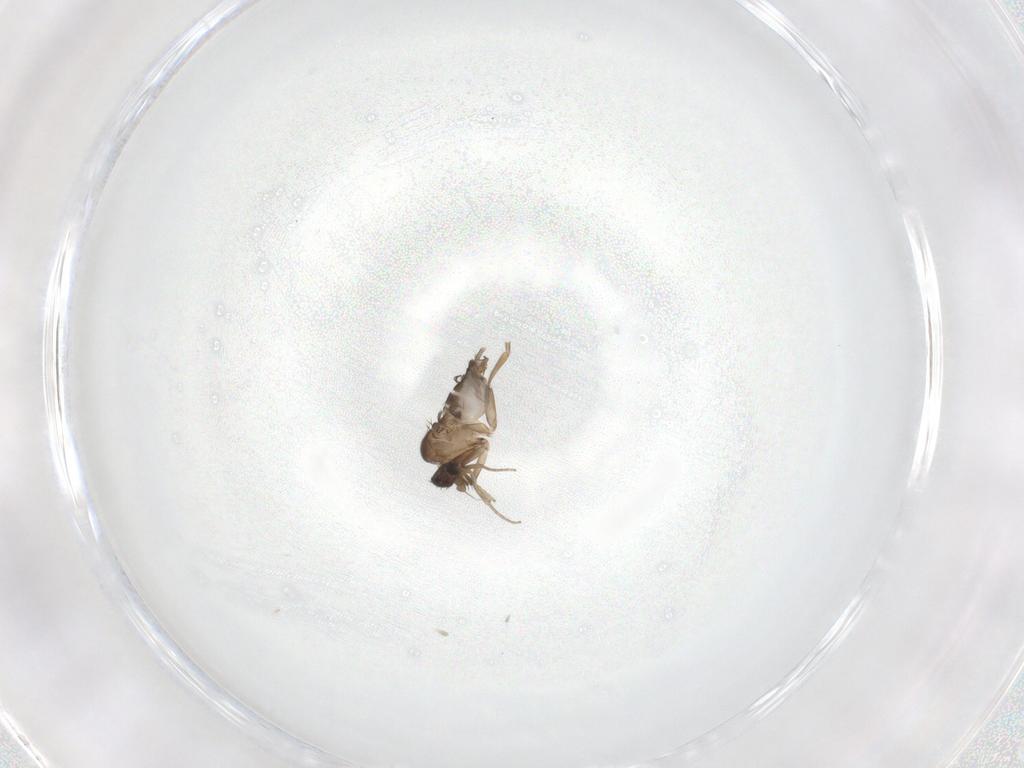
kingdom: Animalia
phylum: Arthropoda
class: Insecta
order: Diptera
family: Phoridae
